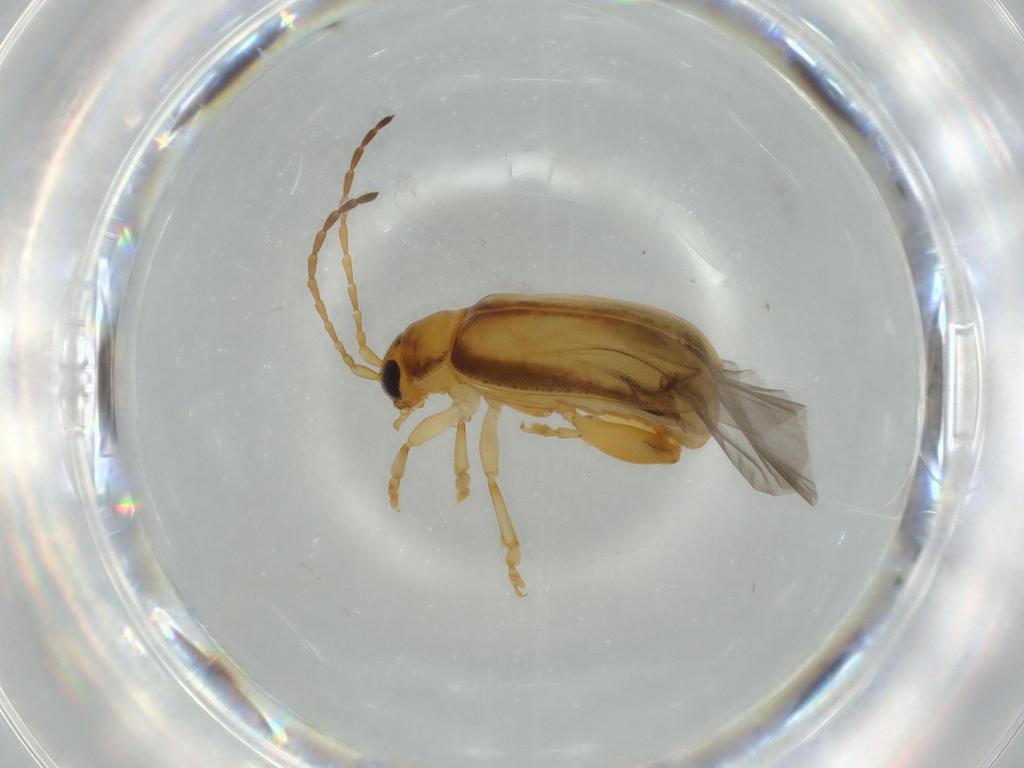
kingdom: Animalia
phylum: Arthropoda
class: Insecta
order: Coleoptera
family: Chrysomelidae
